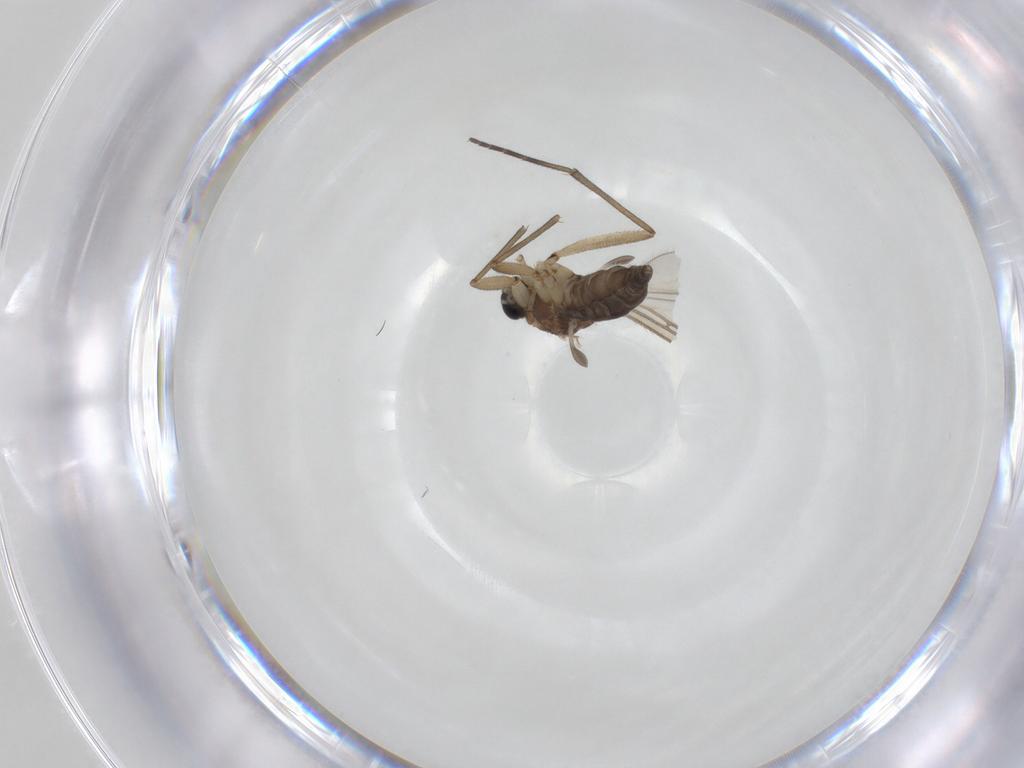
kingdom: Animalia
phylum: Arthropoda
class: Insecta
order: Diptera
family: Sciaridae
